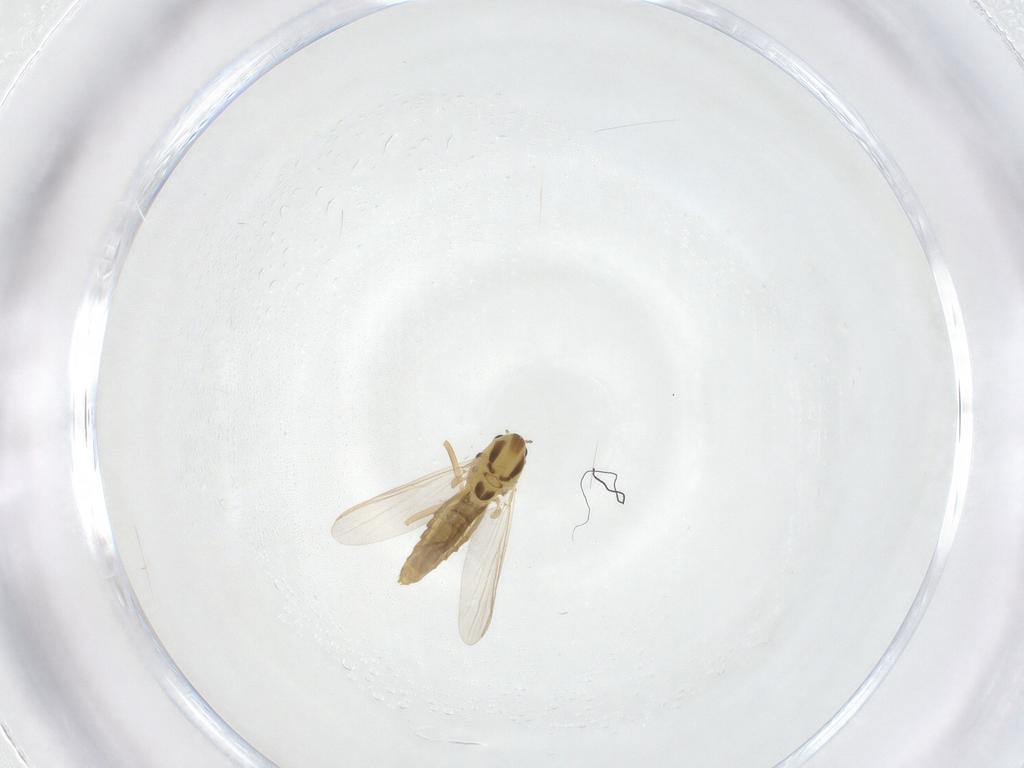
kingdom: Animalia
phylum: Arthropoda
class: Insecta
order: Diptera
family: Chironomidae
